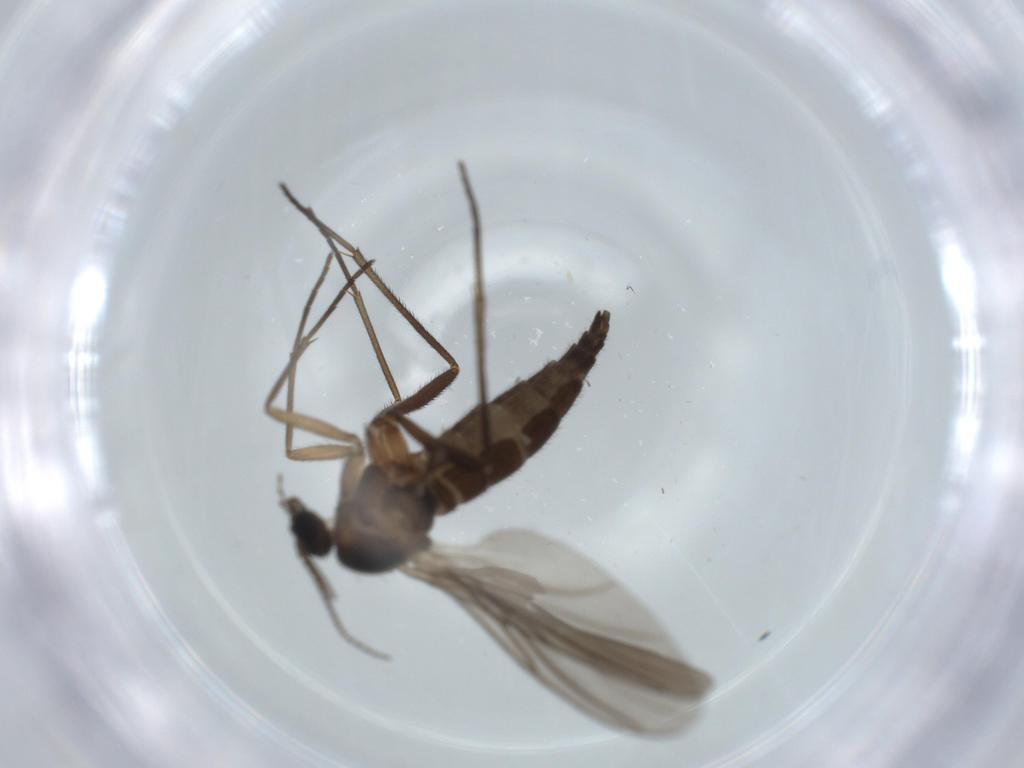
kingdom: Animalia
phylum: Arthropoda
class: Insecta
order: Diptera
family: Sciaridae
